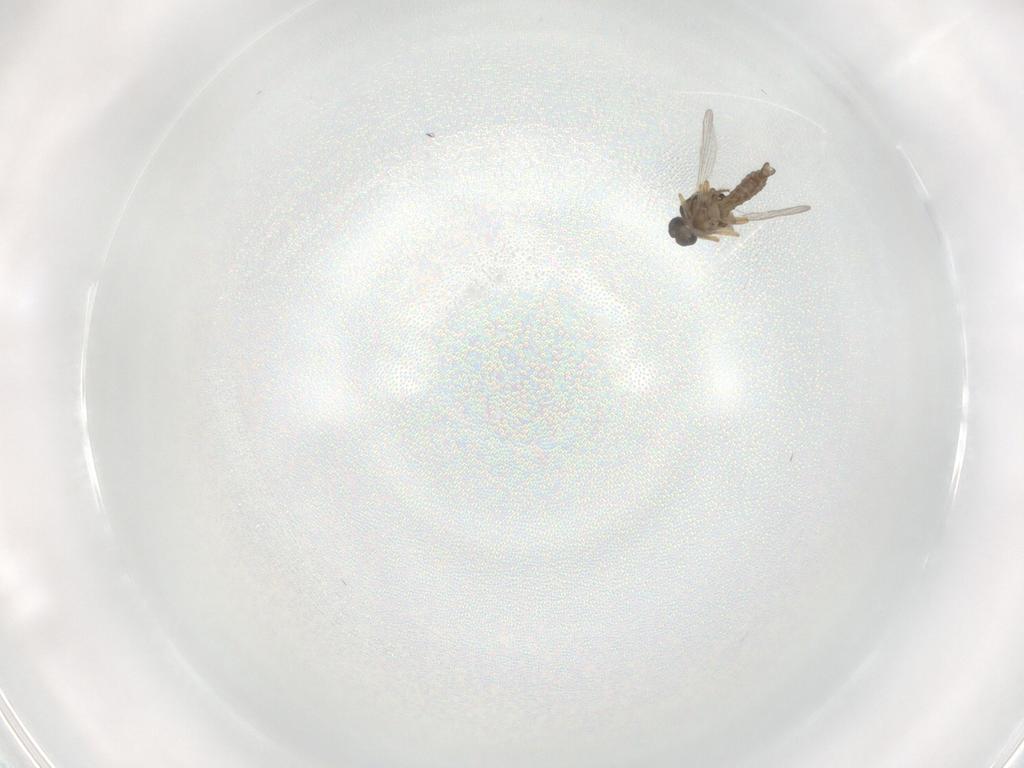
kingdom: Animalia
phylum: Arthropoda
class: Insecta
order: Diptera
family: Ceratopogonidae
